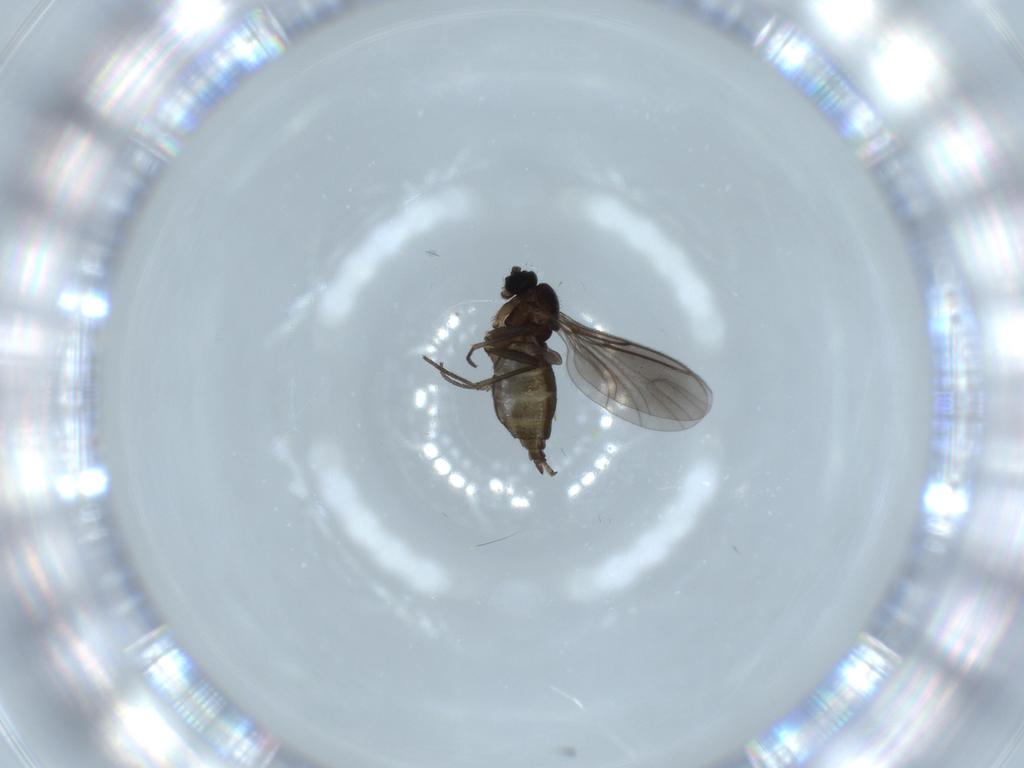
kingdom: Animalia
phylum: Arthropoda
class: Insecta
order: Diptera
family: Sciaridae
